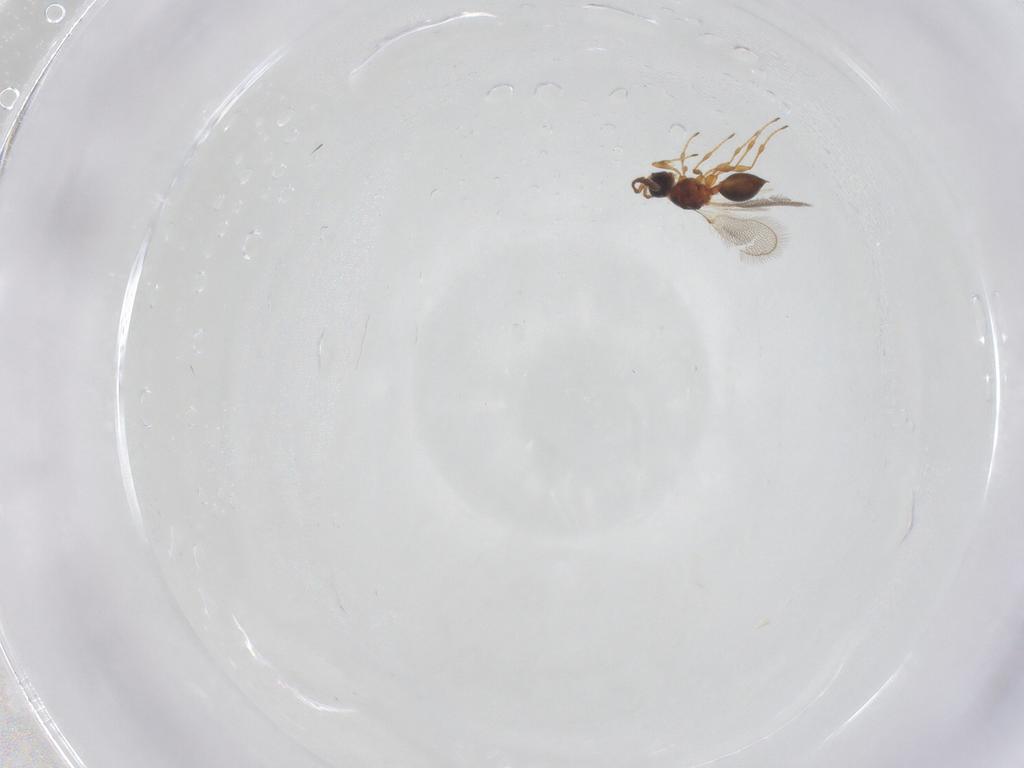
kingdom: Animalia
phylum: Arthropoda
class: Insecta
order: Hymenoptera
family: Diapriidae
